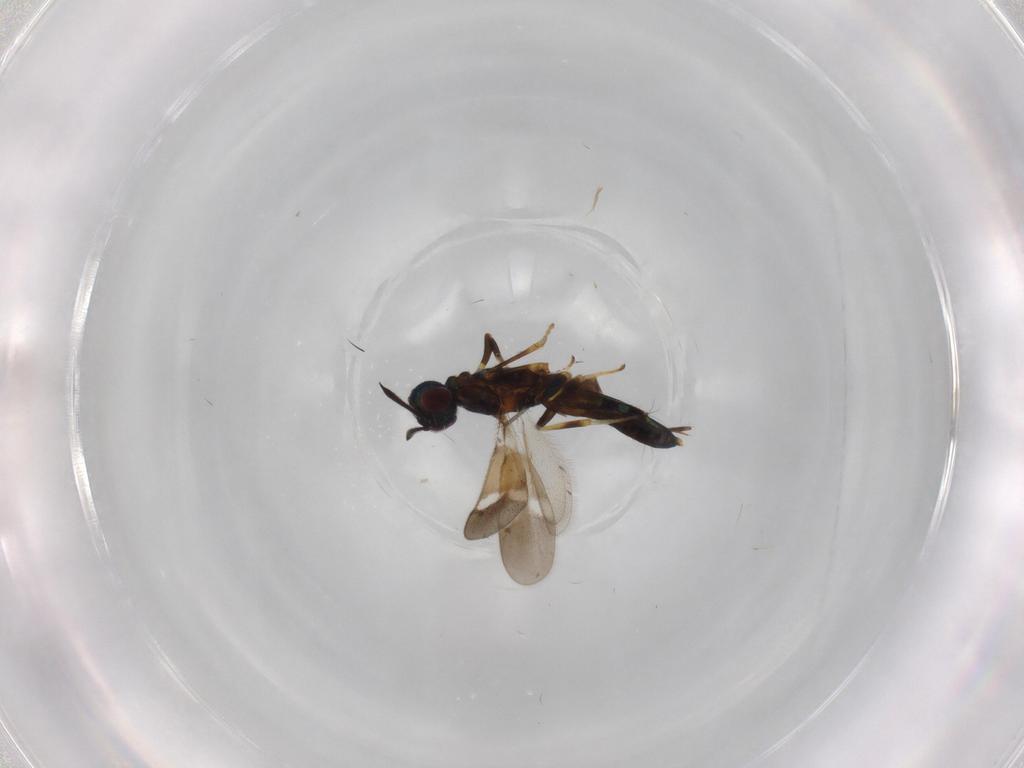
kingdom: Animalia
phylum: Arthropoda
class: Insecta
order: Hymenoptera
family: Eupelmidae
